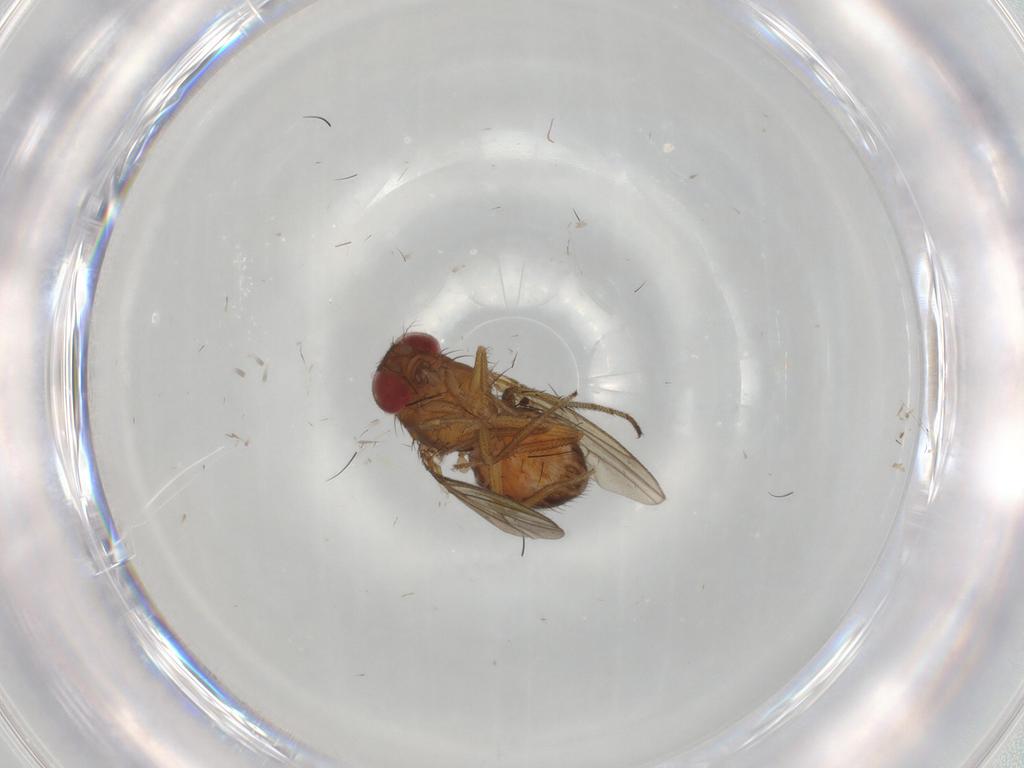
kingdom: Animalia
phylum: Arthropoda
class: Insecta
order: Diptera
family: Drosophilidae
